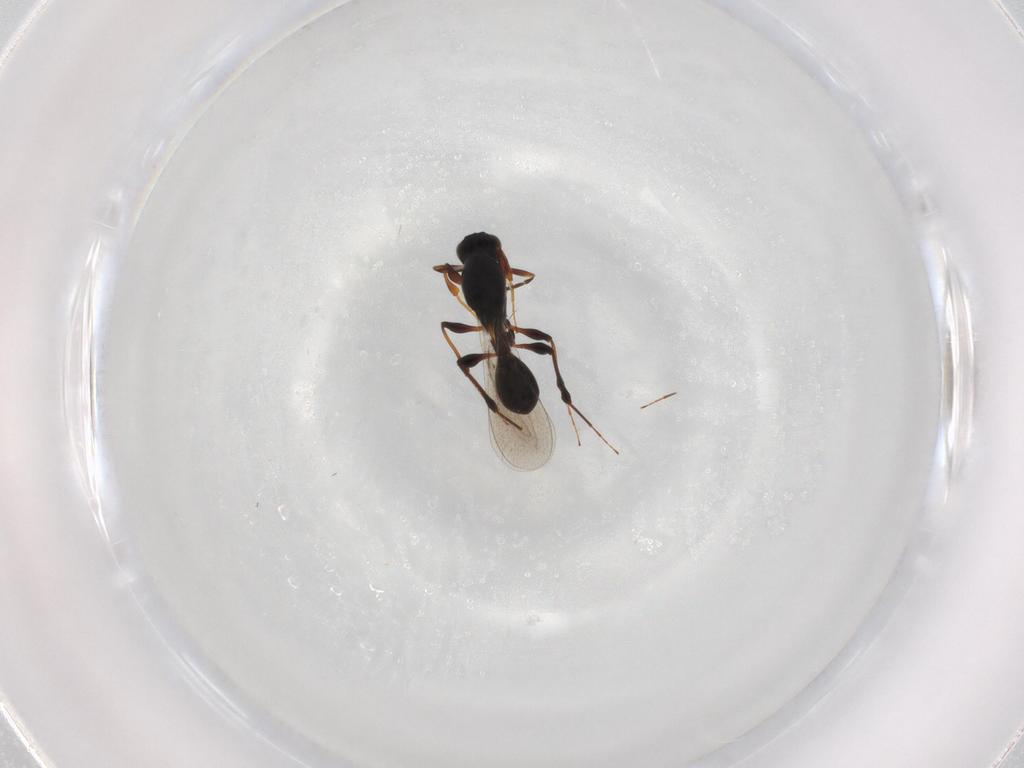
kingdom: Animalia
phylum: Arthropoda
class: Insecta
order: Hymenoptera
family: Platygastridae
